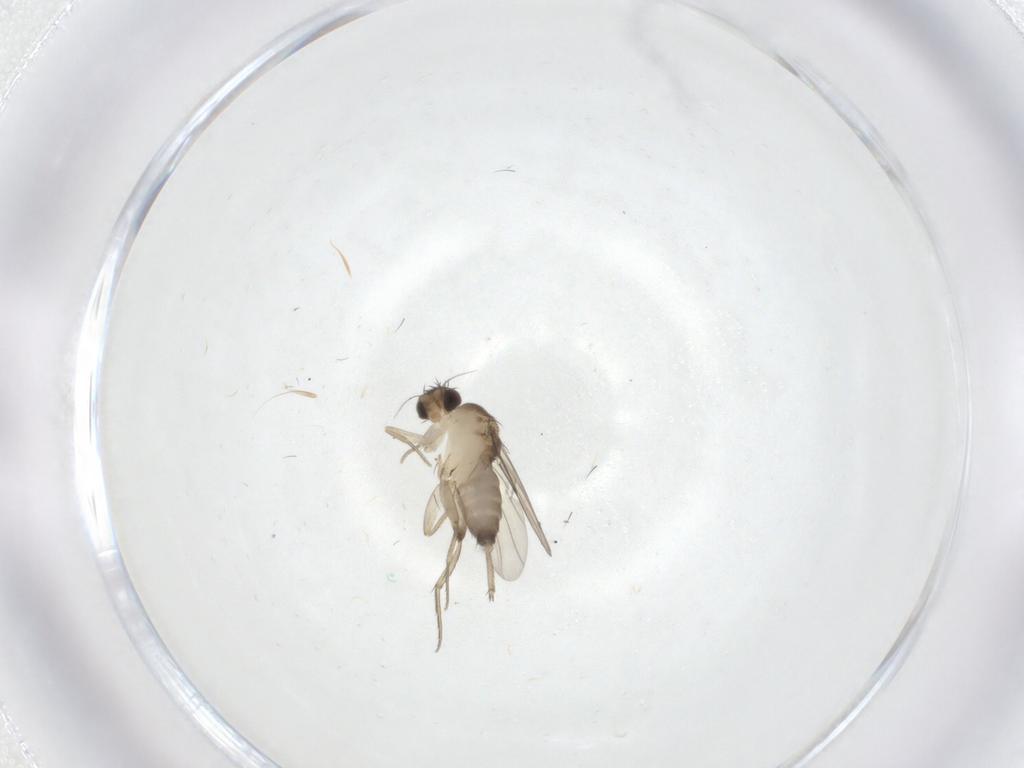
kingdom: Animalia
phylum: Arthropoda
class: Insecta
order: Diptera
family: Phoridae
